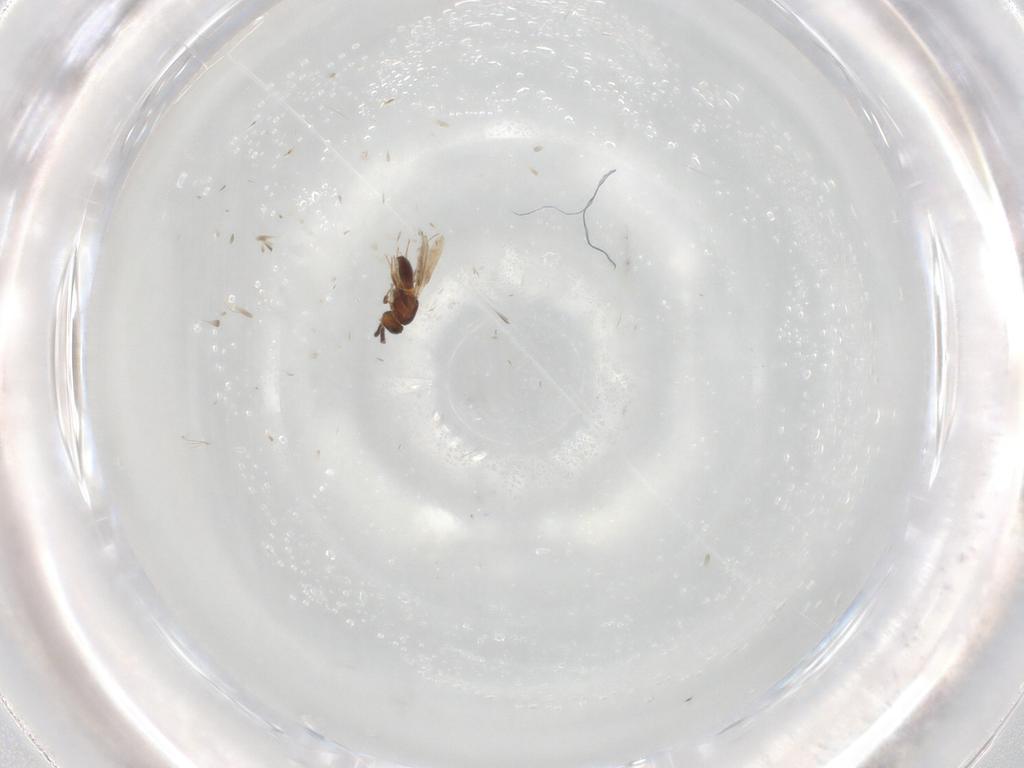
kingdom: Animalia
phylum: Arthropoda
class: Insecta
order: Hymenoptera
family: Scelionidae
